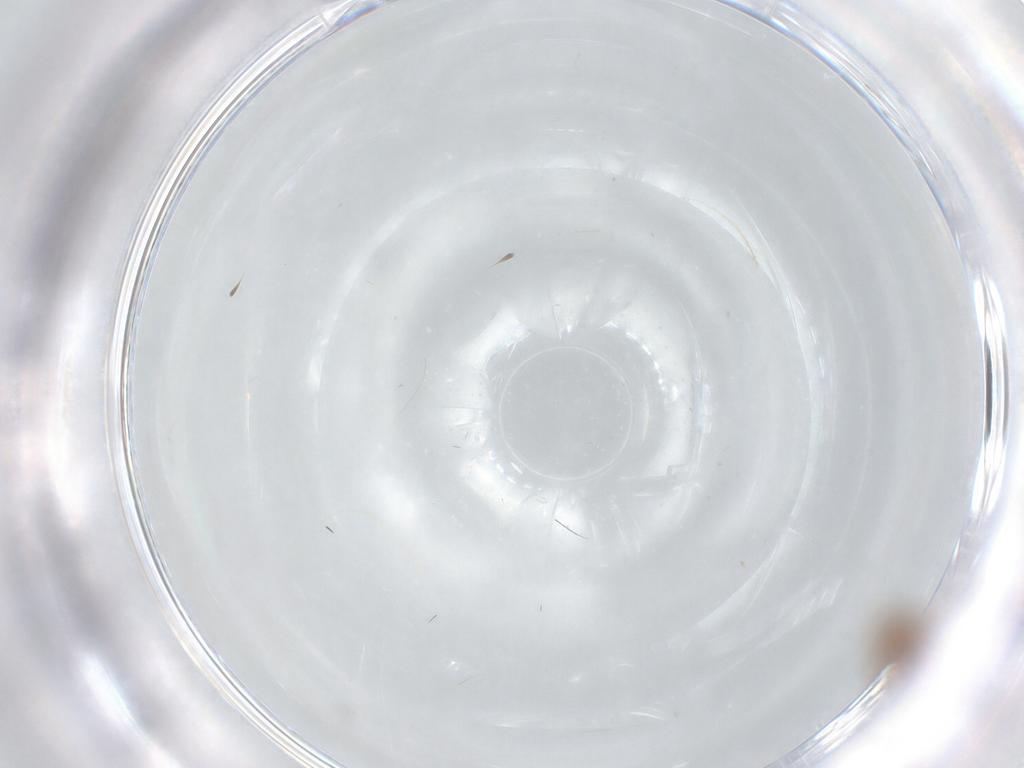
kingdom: Animalia
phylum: Arthropoda
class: Insecta
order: Diptera
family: Psychodidae
